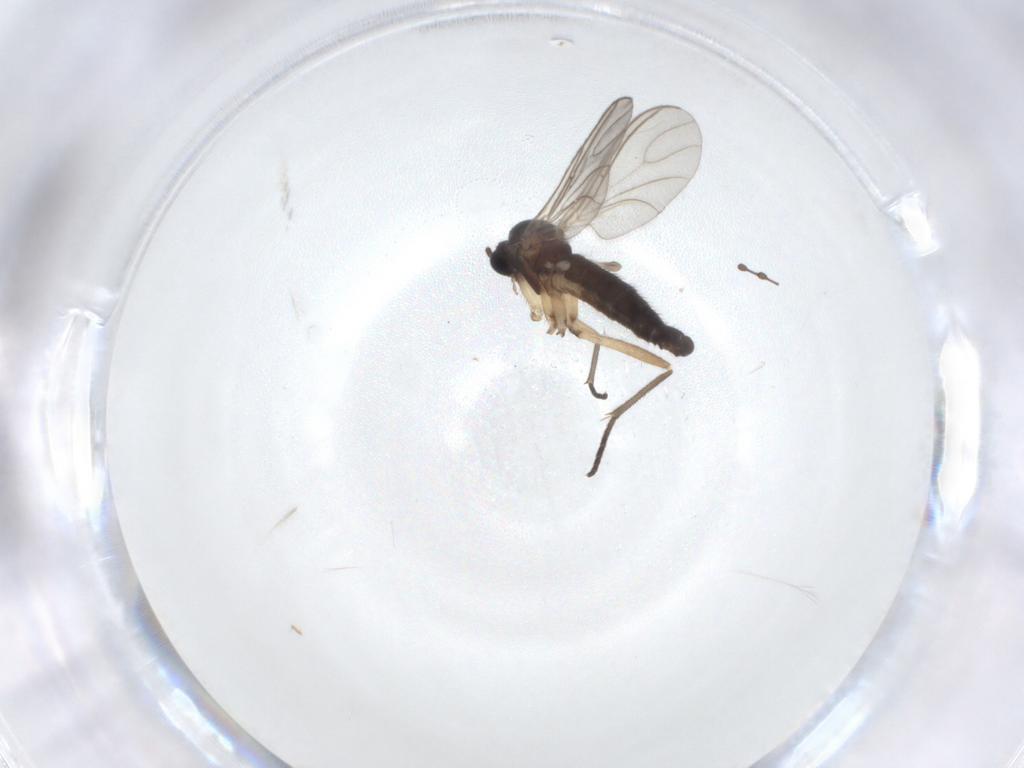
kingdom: Animalia
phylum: Arthropoda
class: Insecta
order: Diptera
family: Sciaridae
